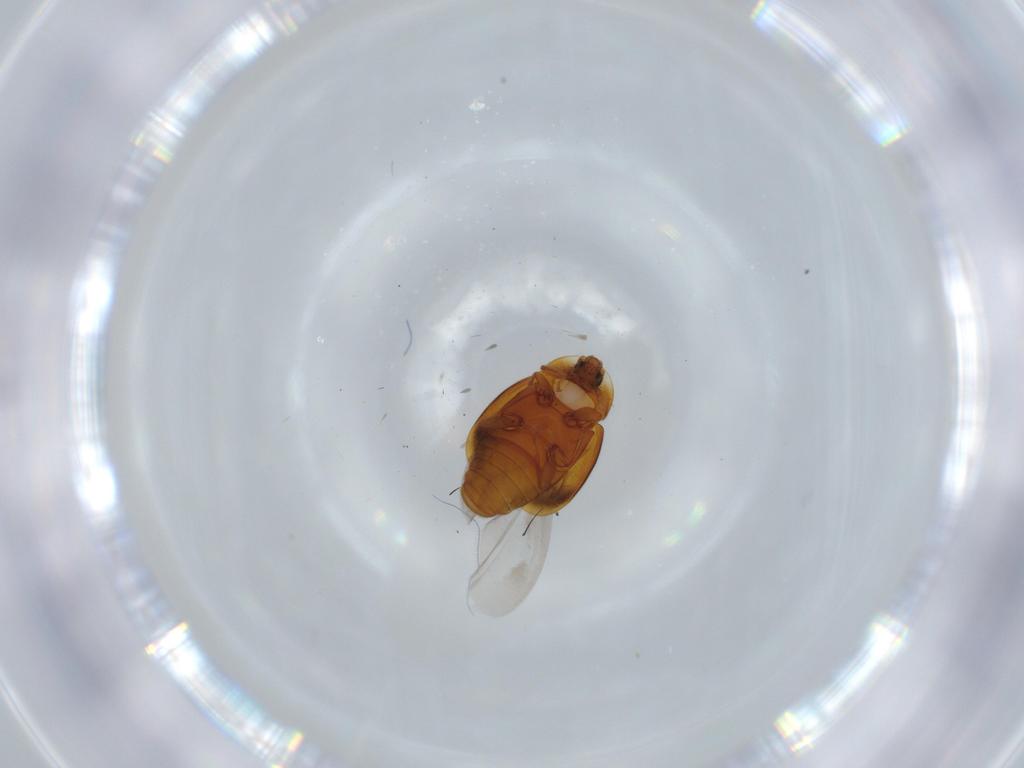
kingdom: Animalia
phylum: Arthropoda
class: Insecta
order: Coleoptera
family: Corylophidae
